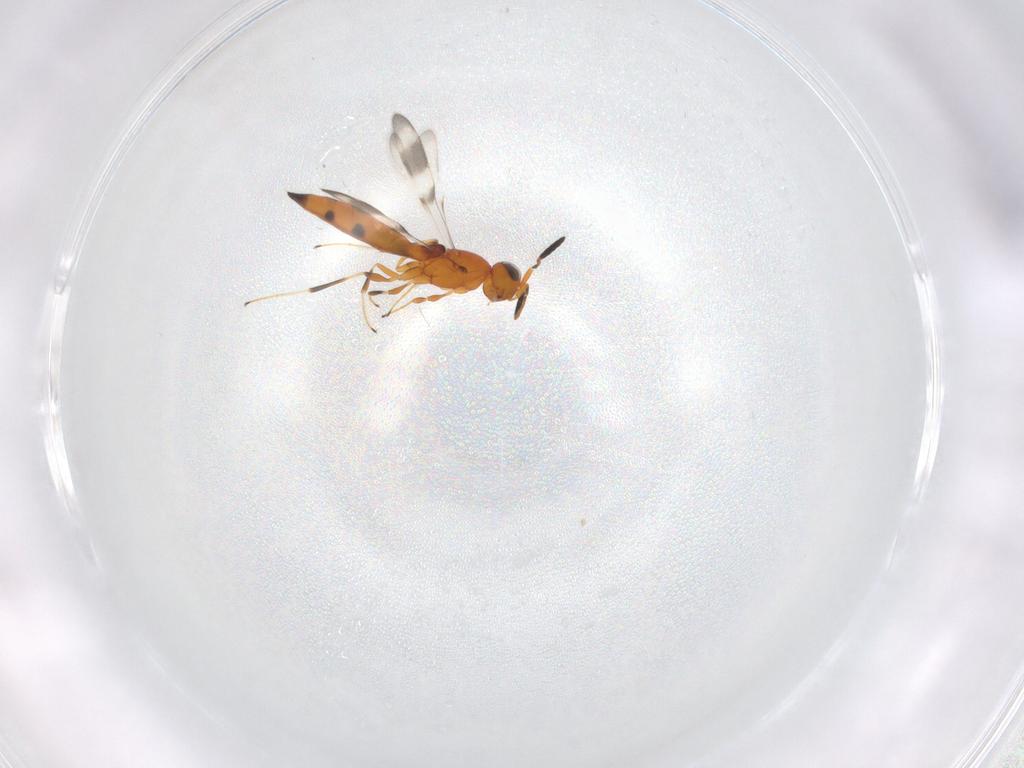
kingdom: Animalia
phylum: Arthropoda
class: Insecta
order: Hymenoptera
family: Scelionidae
